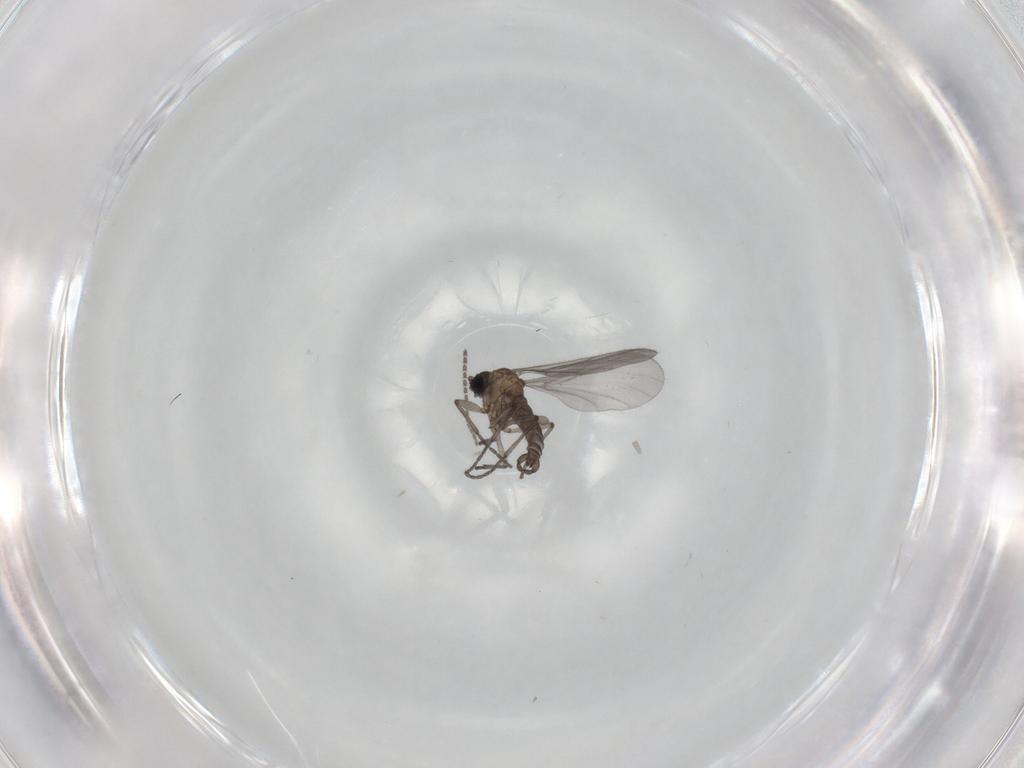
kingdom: Animalia
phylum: Arthropoda
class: Insecta
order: Diptera
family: Sciaridae
